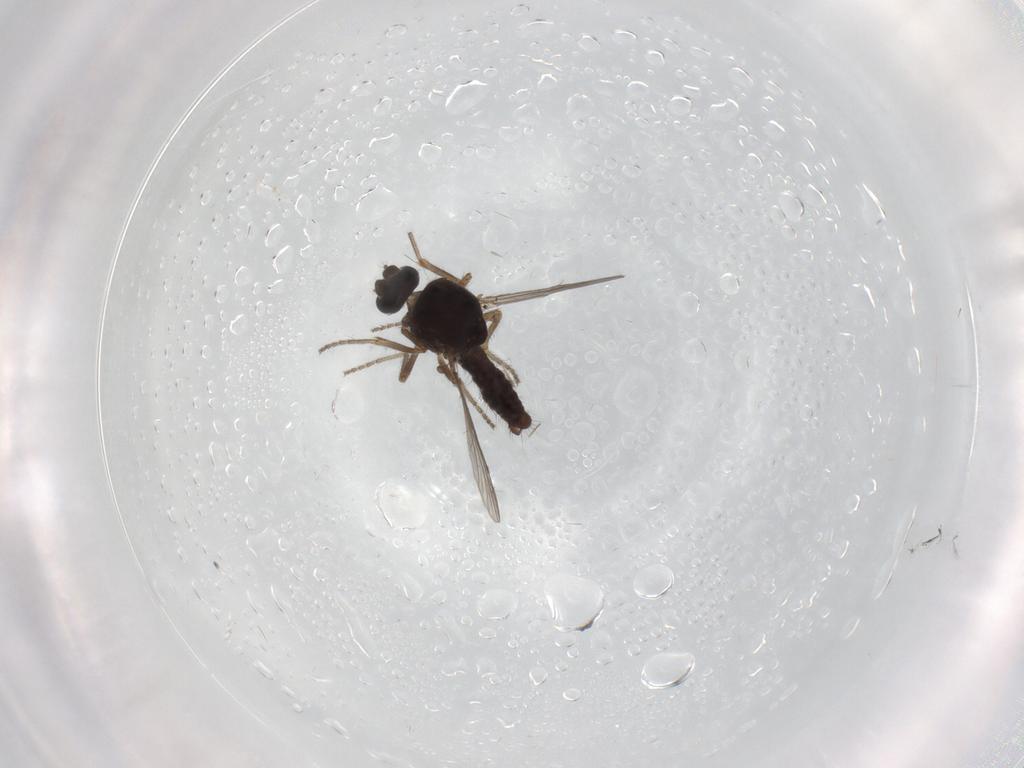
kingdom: Animalia
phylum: Arthropoda
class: Insecta
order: Diptera
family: Ceratopogonidae
